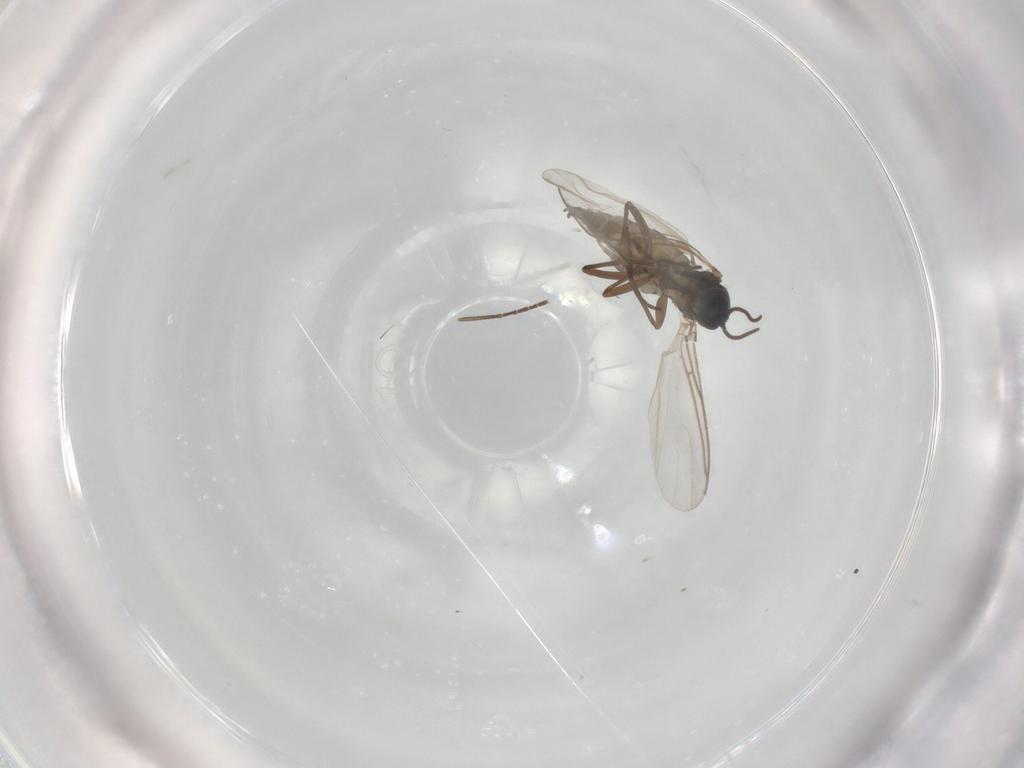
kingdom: Animalia
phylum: Arthropoda
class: Insecta
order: Diptera
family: Sciaridae
